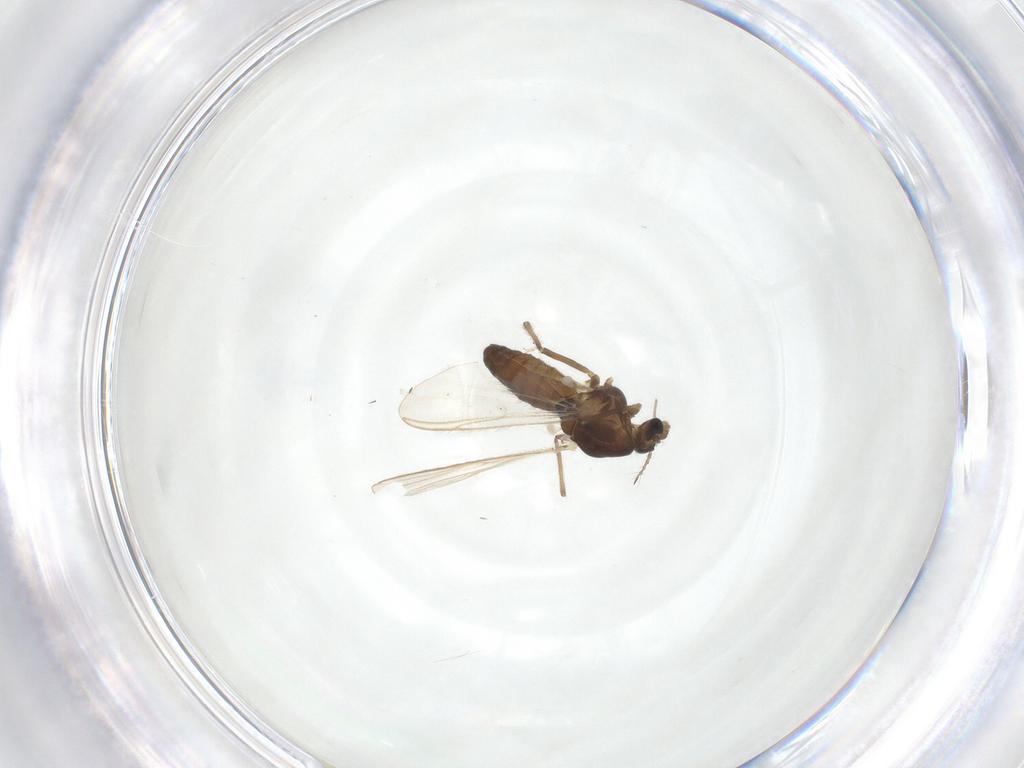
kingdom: Animalia
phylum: Arthropoda
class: Insecta
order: Diptera
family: Chironomidae
